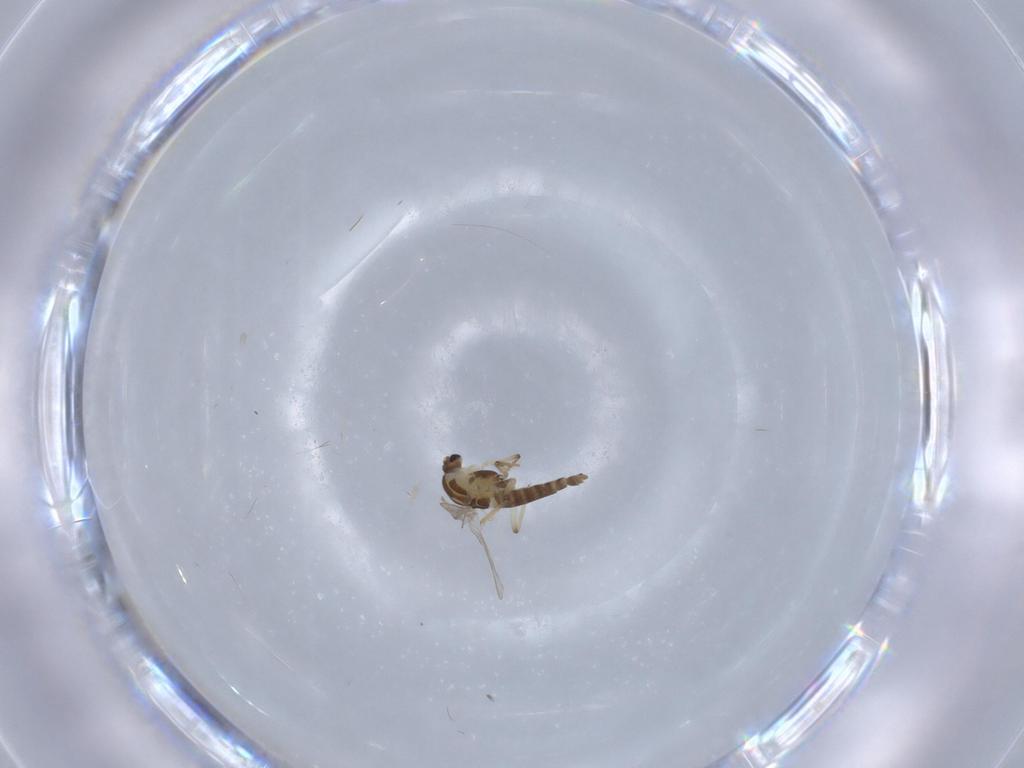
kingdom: Animalia
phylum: Arthropoda
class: Insecta
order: Diptera
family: Chironomidae
